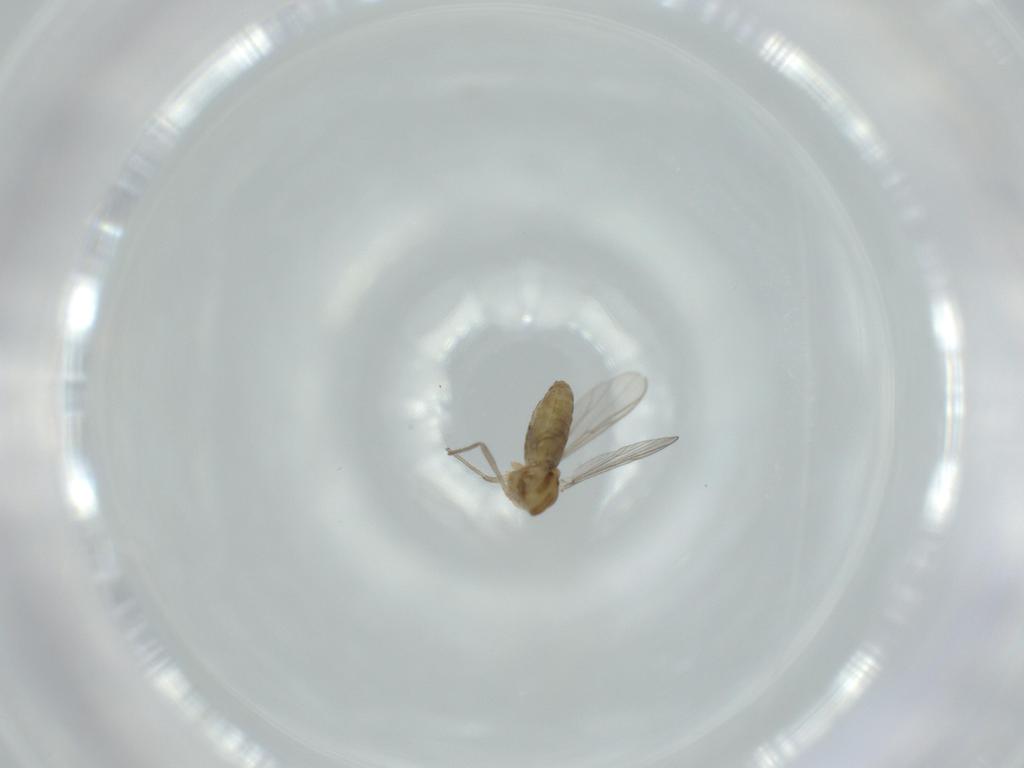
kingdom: Animalia
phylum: Arthropoda
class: Insecta
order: Diptera
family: Chironomidae
